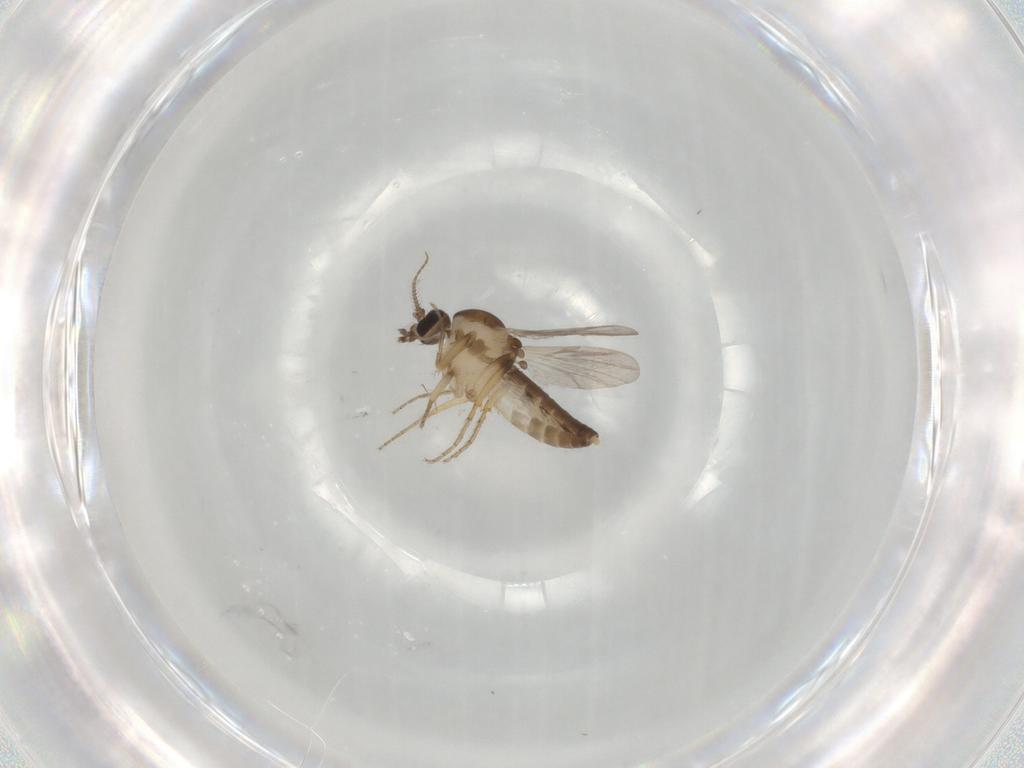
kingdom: Animalia
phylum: Arthropoda
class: Insecta
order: Diptera
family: Ceratopogonidae
